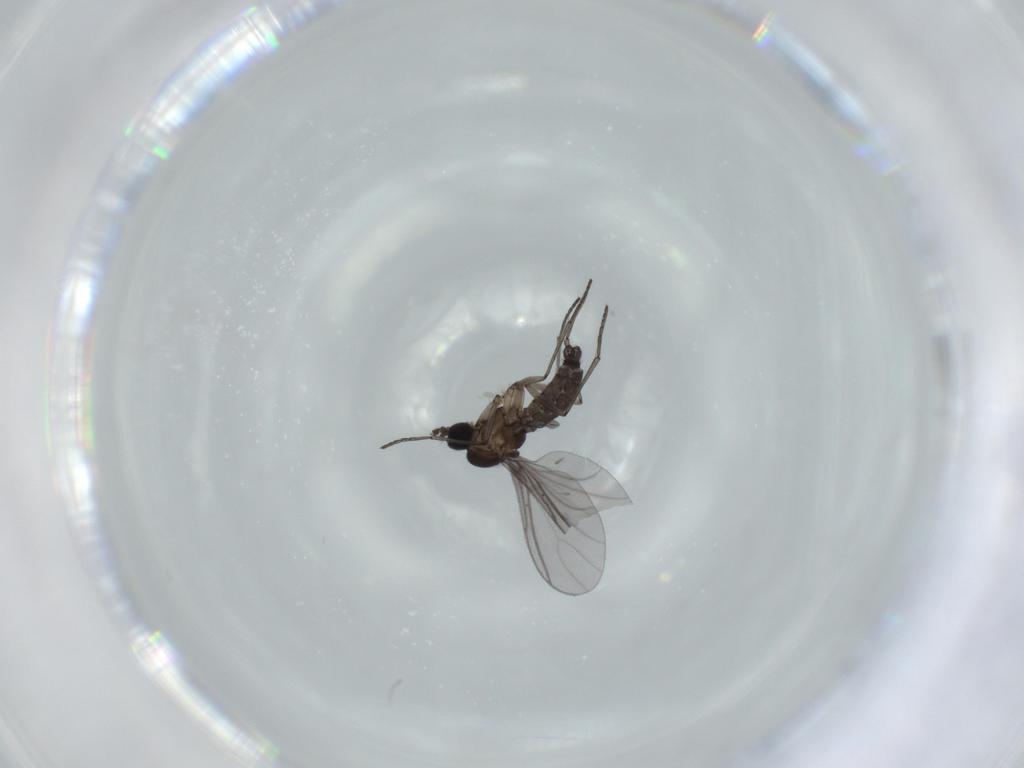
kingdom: Animalia
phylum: Arthropoda
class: Insecta
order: Diptera
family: Sciaridae
